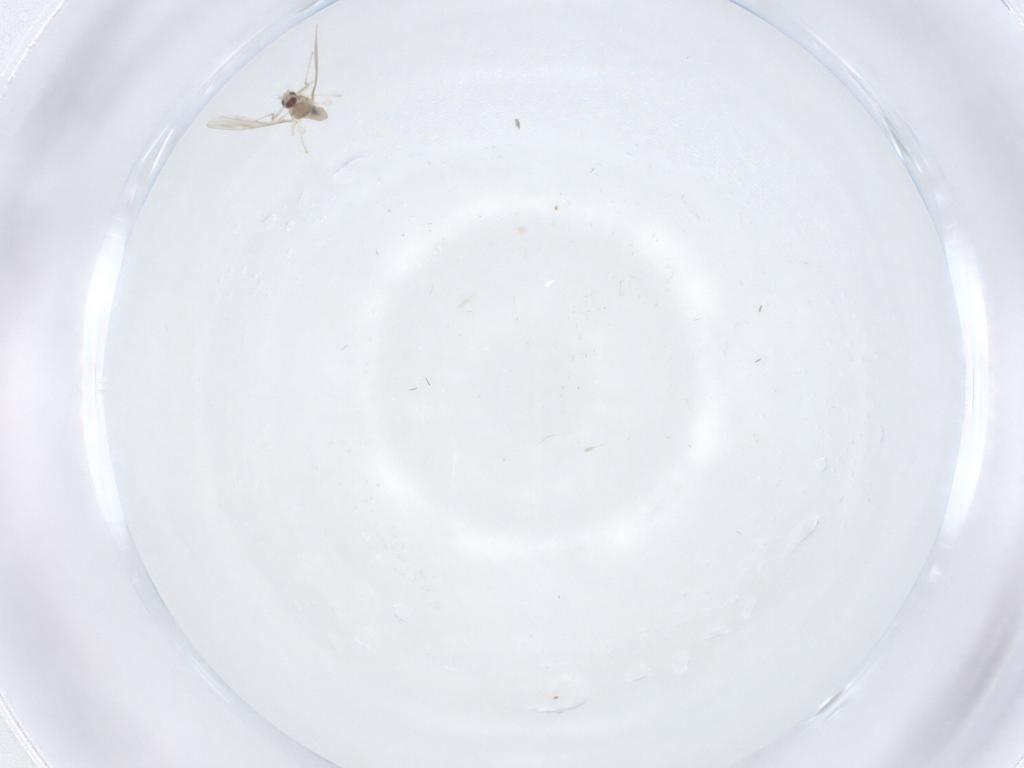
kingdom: Animalia
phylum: Arthropoda
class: Insecta
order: Diptera
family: Cecidomyiidae
